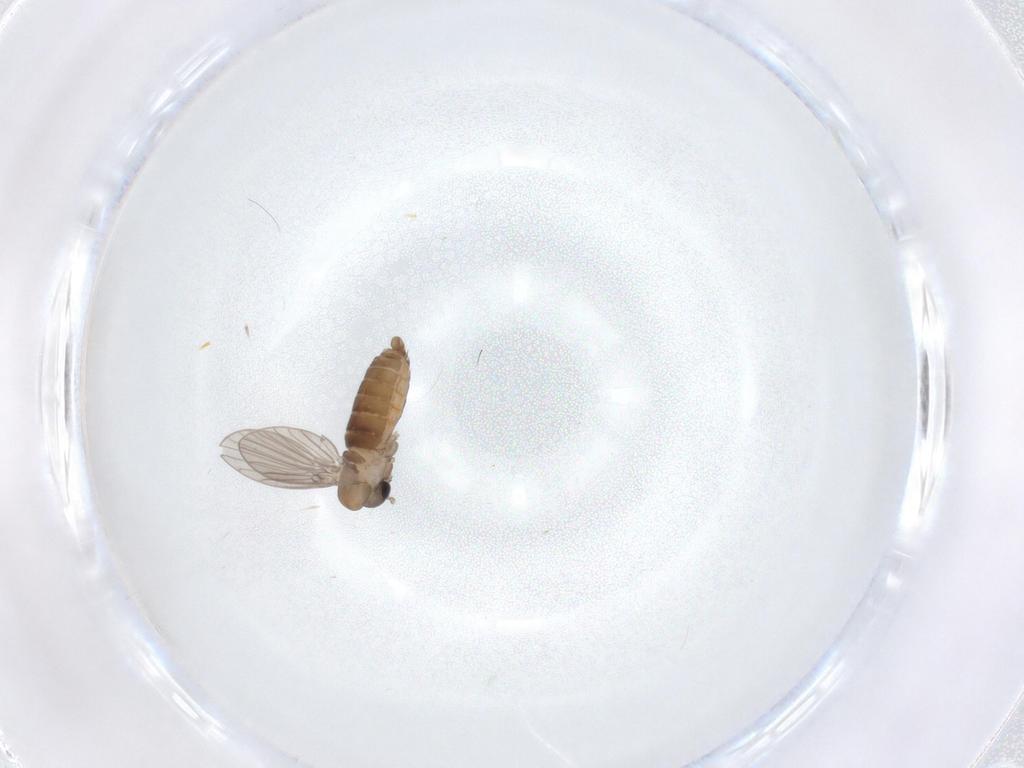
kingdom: Animalia
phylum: Arthropoda
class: Insecta
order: Diptera
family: Psychodidae
